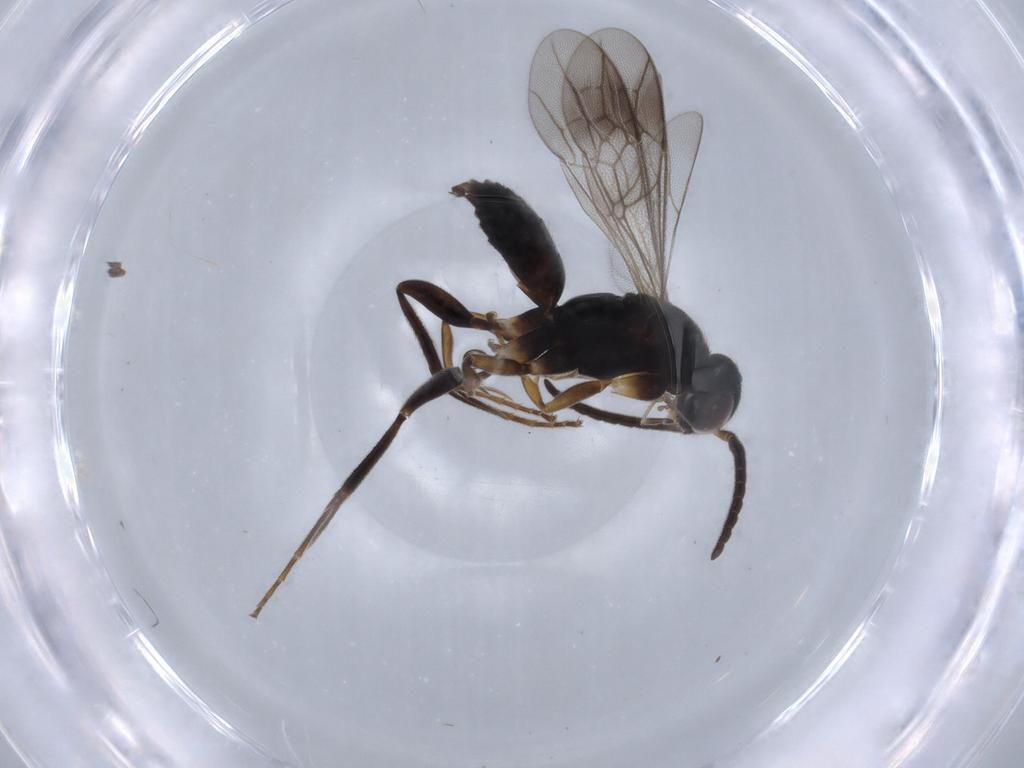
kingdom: Animalia
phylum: Arthropoda
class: Insecta
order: Hymenoptera
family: Pompilidae
